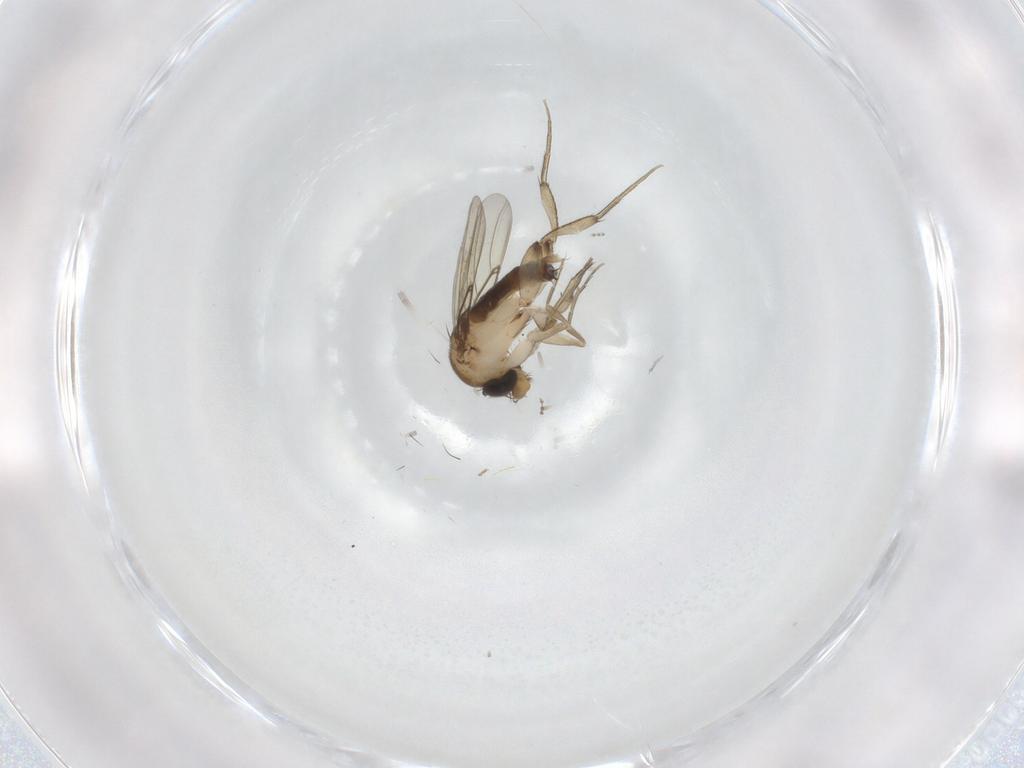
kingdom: Animalia
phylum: Arthropoda
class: Insecta
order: Diptera
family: Phoridae
